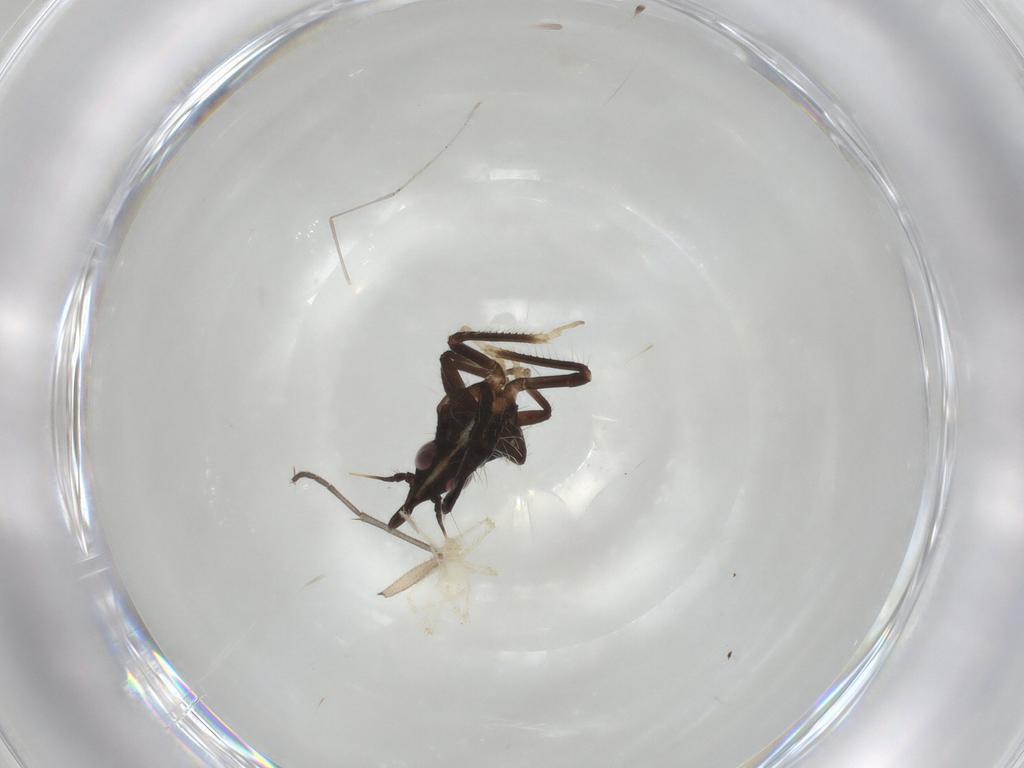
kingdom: Animalia
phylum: Arthropoda
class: Insecta
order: Hemiptera
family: Cicadellidae
